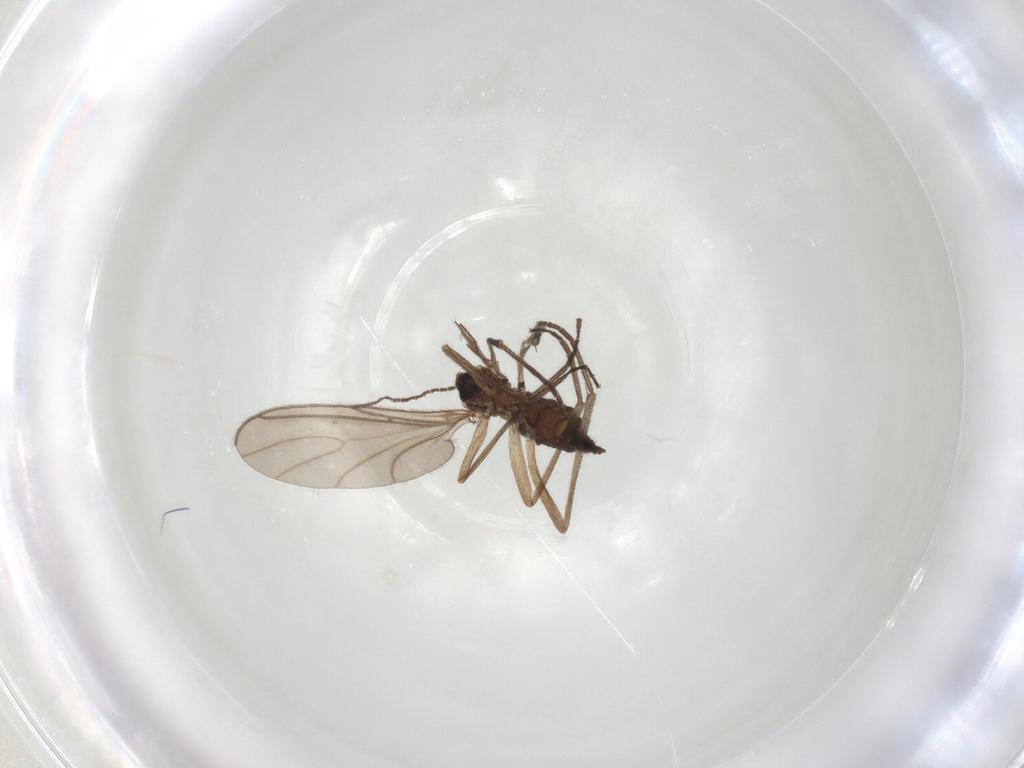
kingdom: Animalia
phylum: Arthropoda
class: Insecta
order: Diptera
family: Sciaridae
